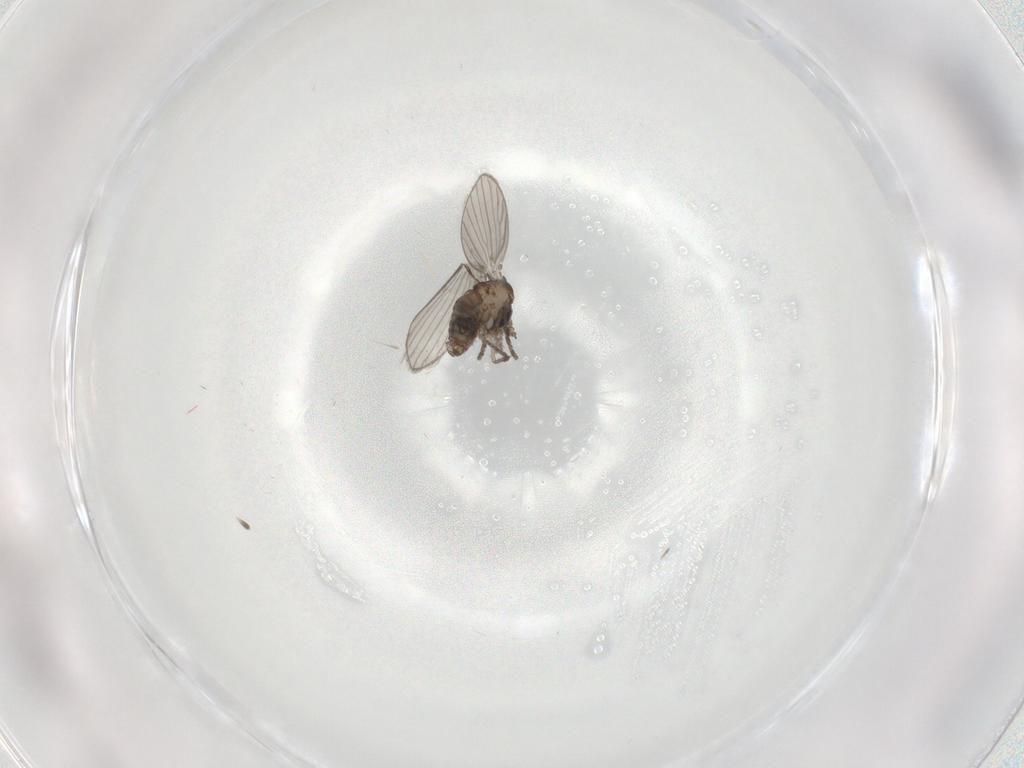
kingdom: Animalia
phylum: Arthropoda
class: Insecta
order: Diptera
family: Psychodidae
